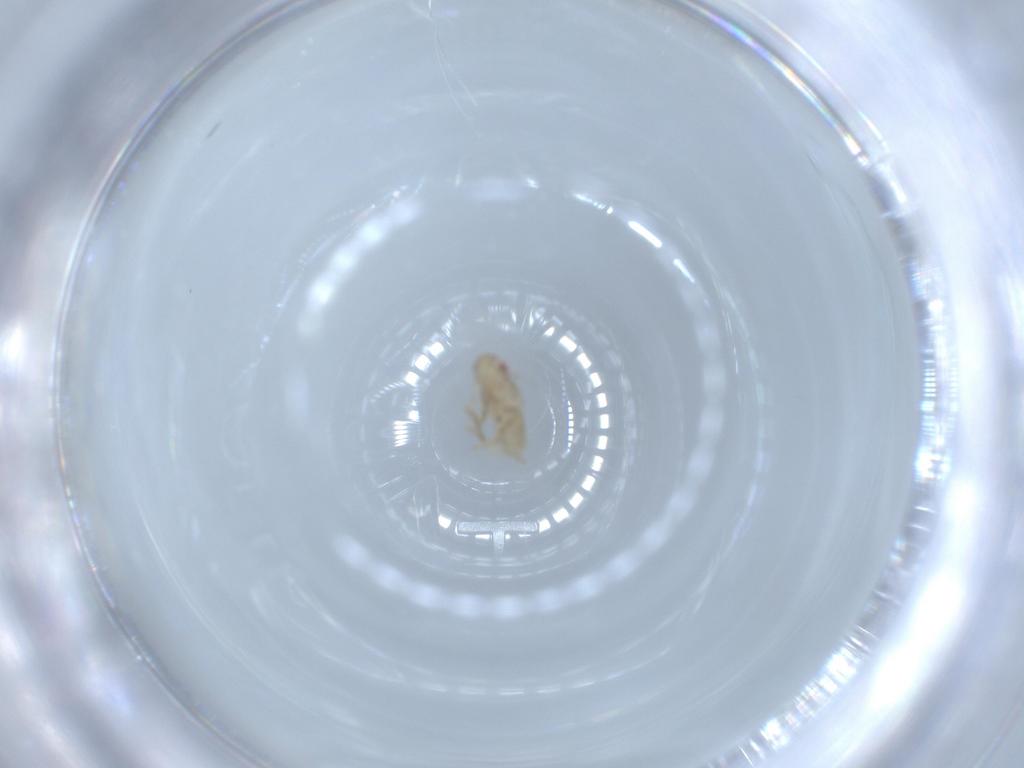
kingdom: Animalia
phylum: Arthropoda
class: Insecta
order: Hemiptera
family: Delphacidae
